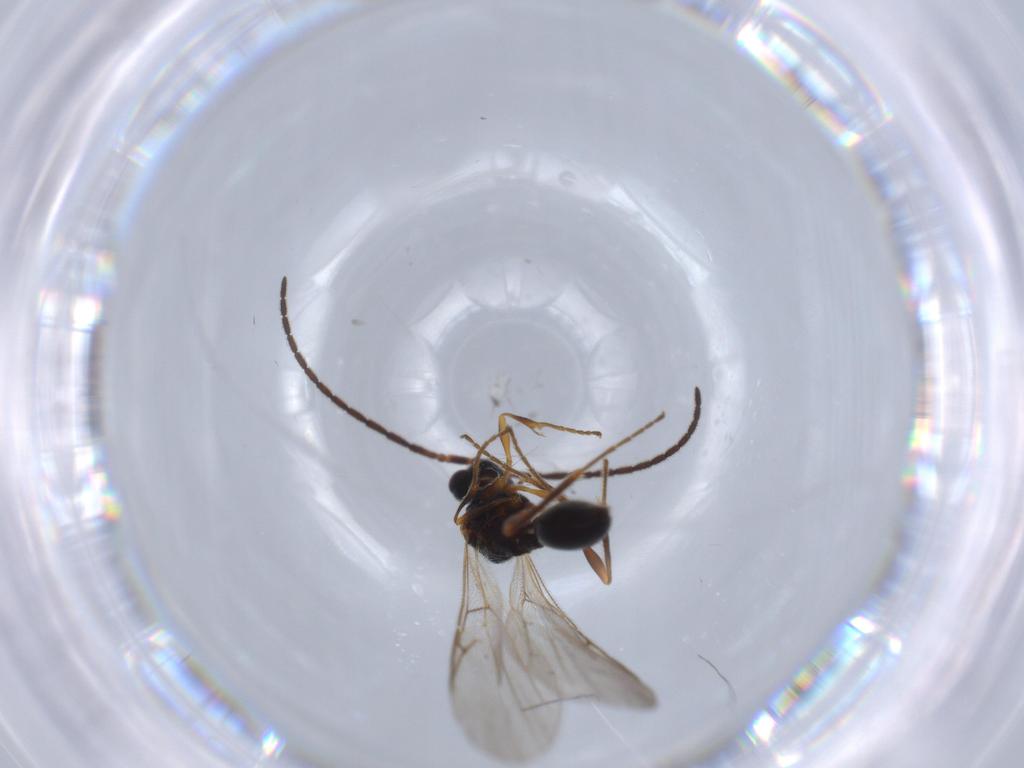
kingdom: Animalia
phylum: Arthropoda
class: Insecta
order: Hymenoptera
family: Diapriidae
